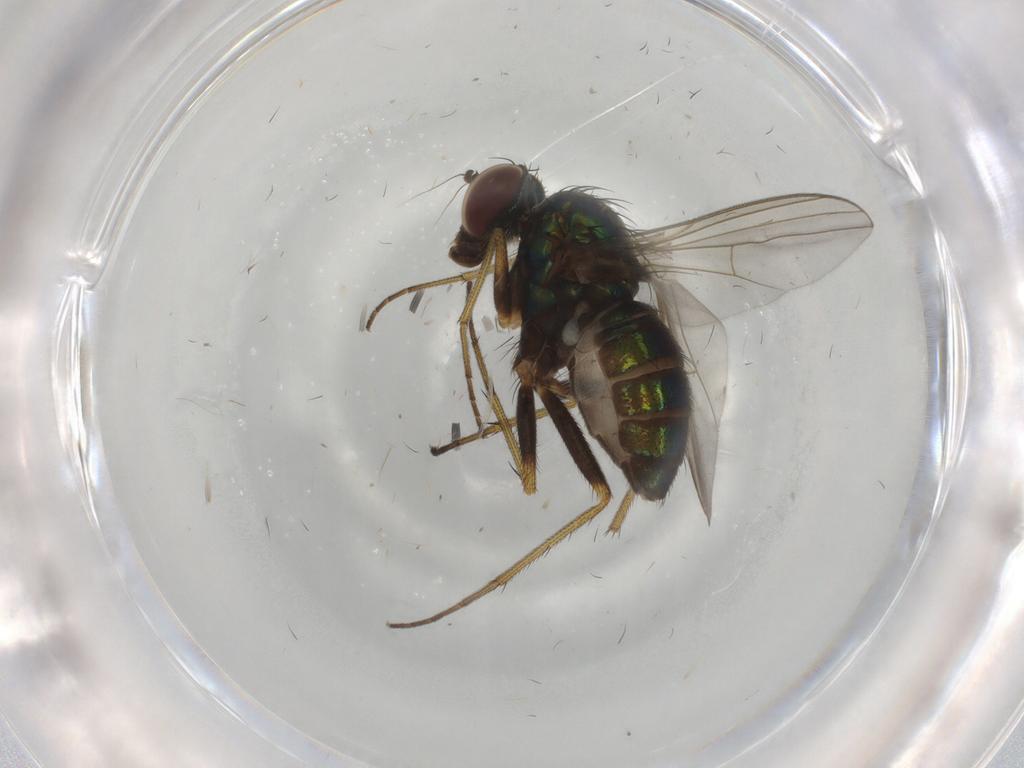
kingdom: Animalia
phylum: Arthropoda
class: Insecta
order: Diptera
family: Dolichopodidae
